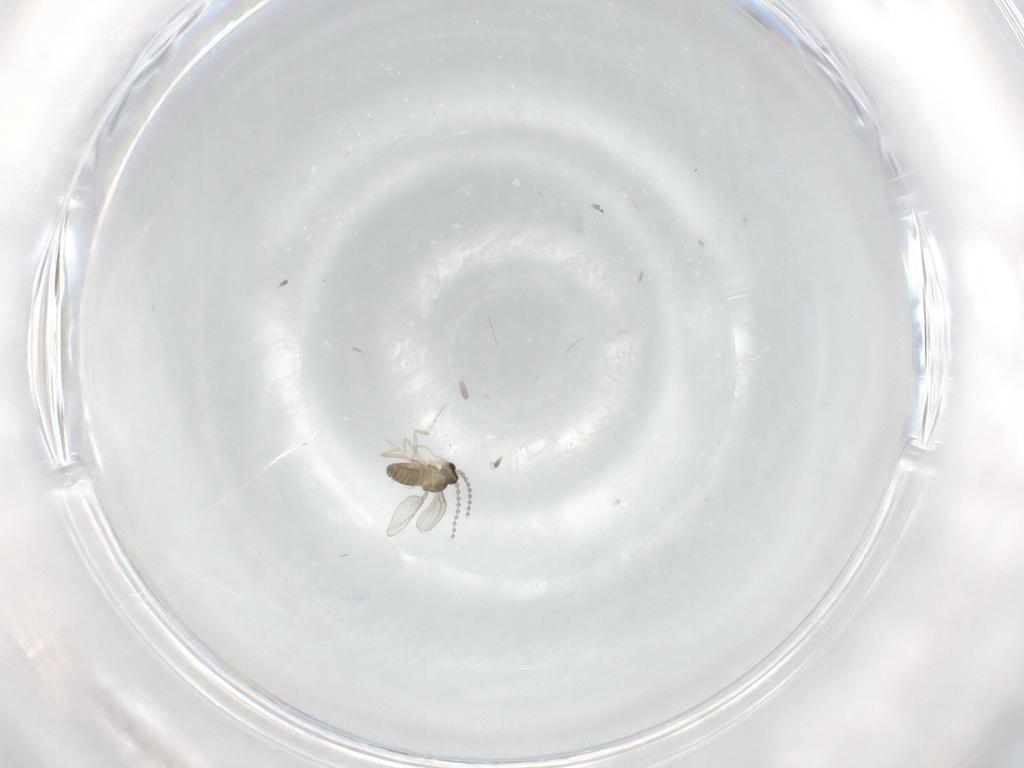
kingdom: Animalia
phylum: Arthropoda
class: Insecta
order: Diptera
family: Cecidomyiidae
